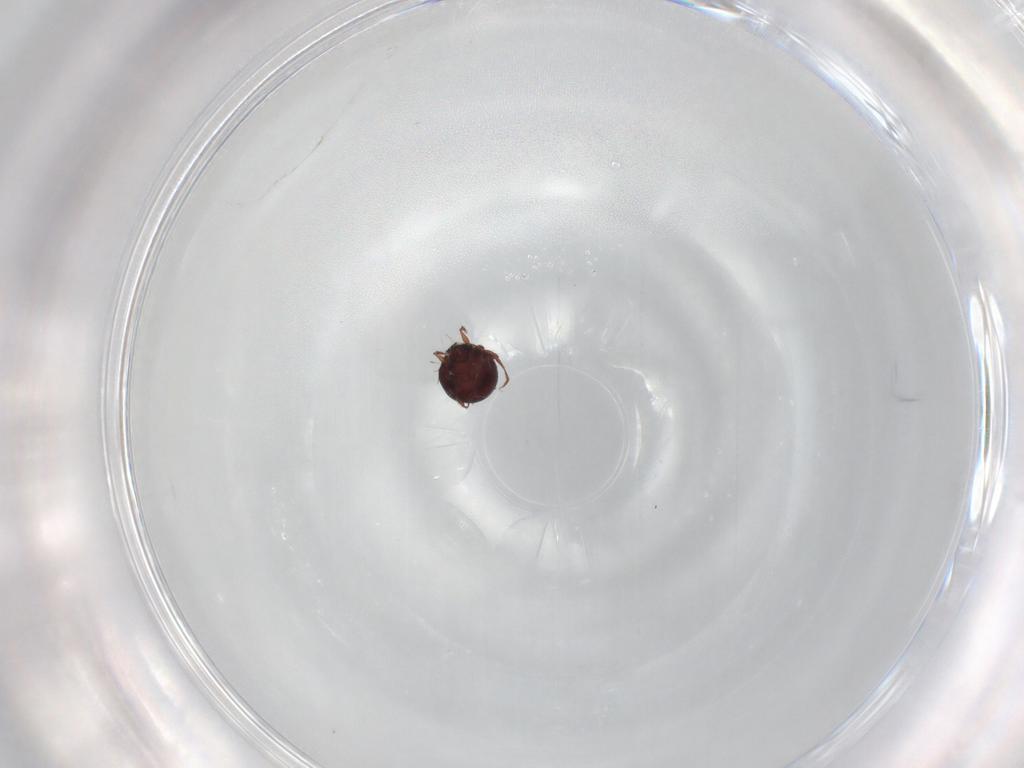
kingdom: Animalia
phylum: Arthropoda
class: Arachnida
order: Sarcoptiformes
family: Caloppiidae
